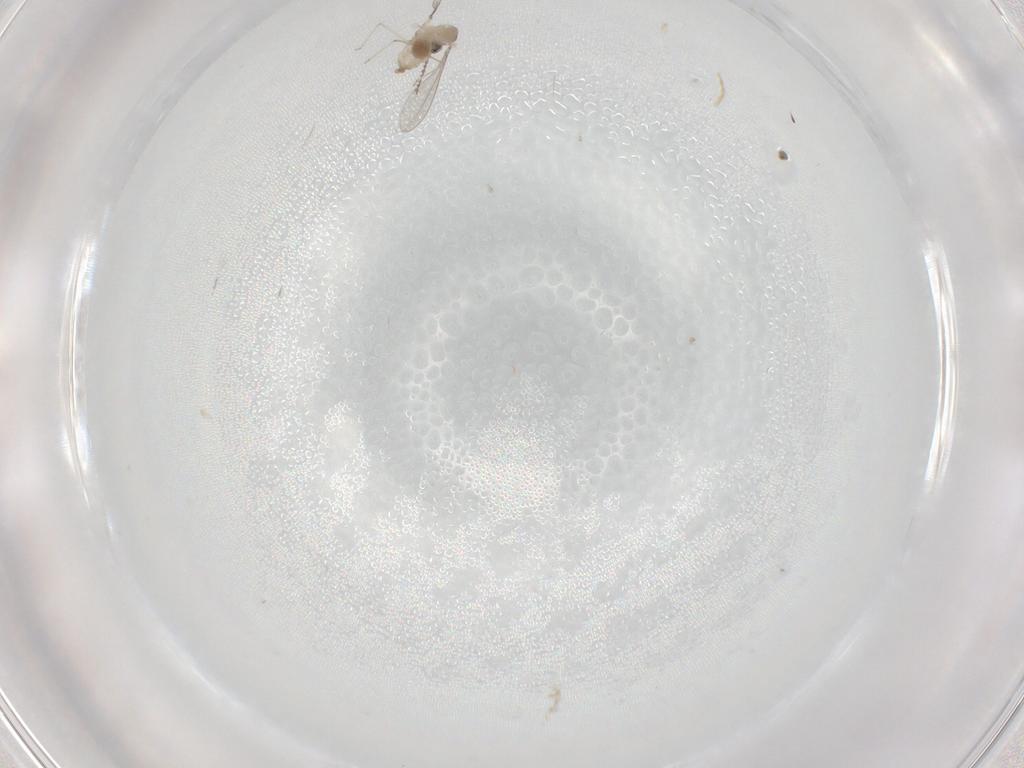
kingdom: Animalia
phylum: Arthropoda
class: Insecta
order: Diptera
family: Cecidomyiidae
